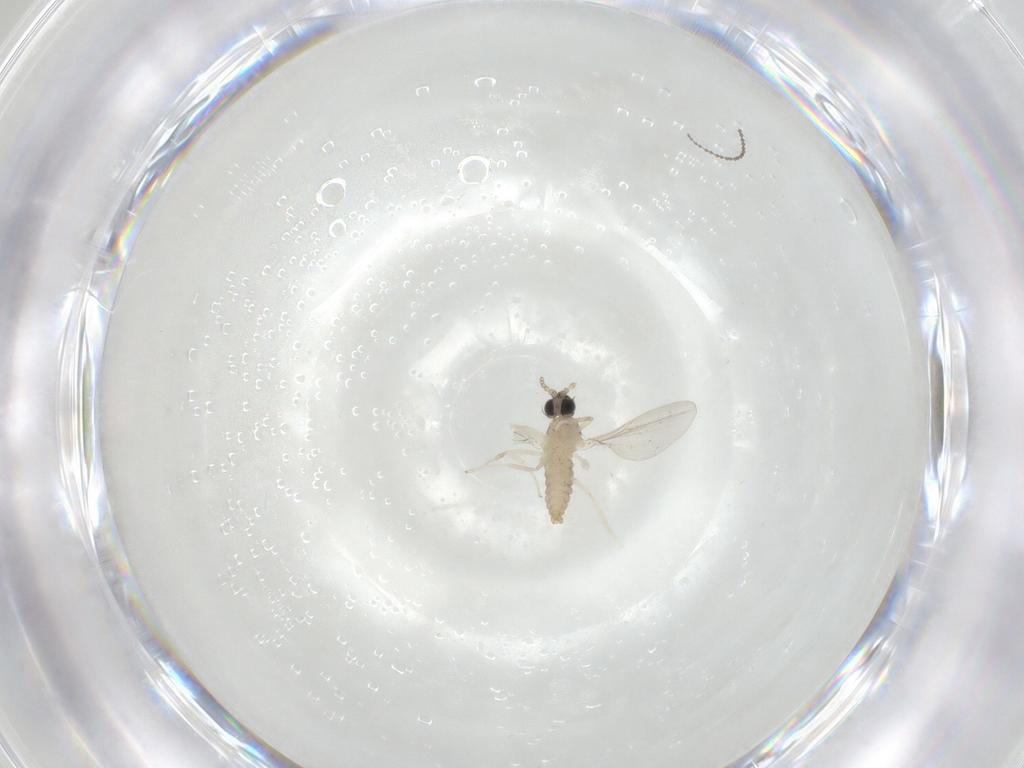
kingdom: Animalia
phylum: Arthropoda
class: Insecta
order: Diptera
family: Cecidomyiidae
